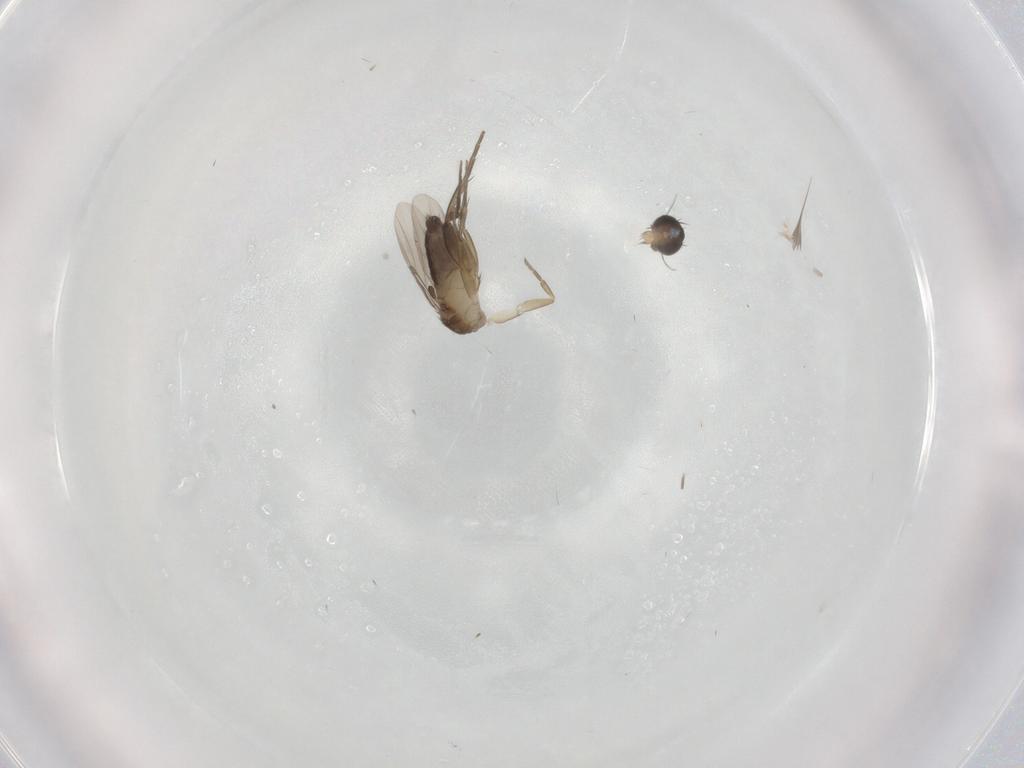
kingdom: Animalia
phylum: Arthropoda
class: Insecta
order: Diptera
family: Phoridae
